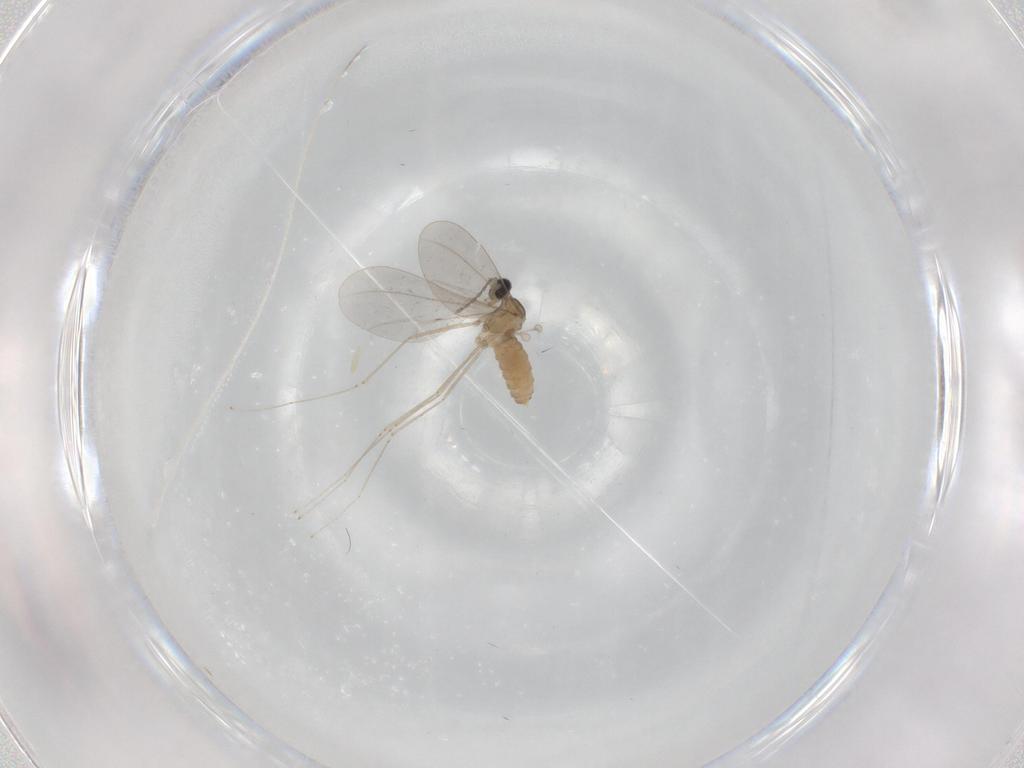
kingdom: Animalia
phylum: Arthropoda
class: Insecta
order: Diptera
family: Cecidomyiidae
